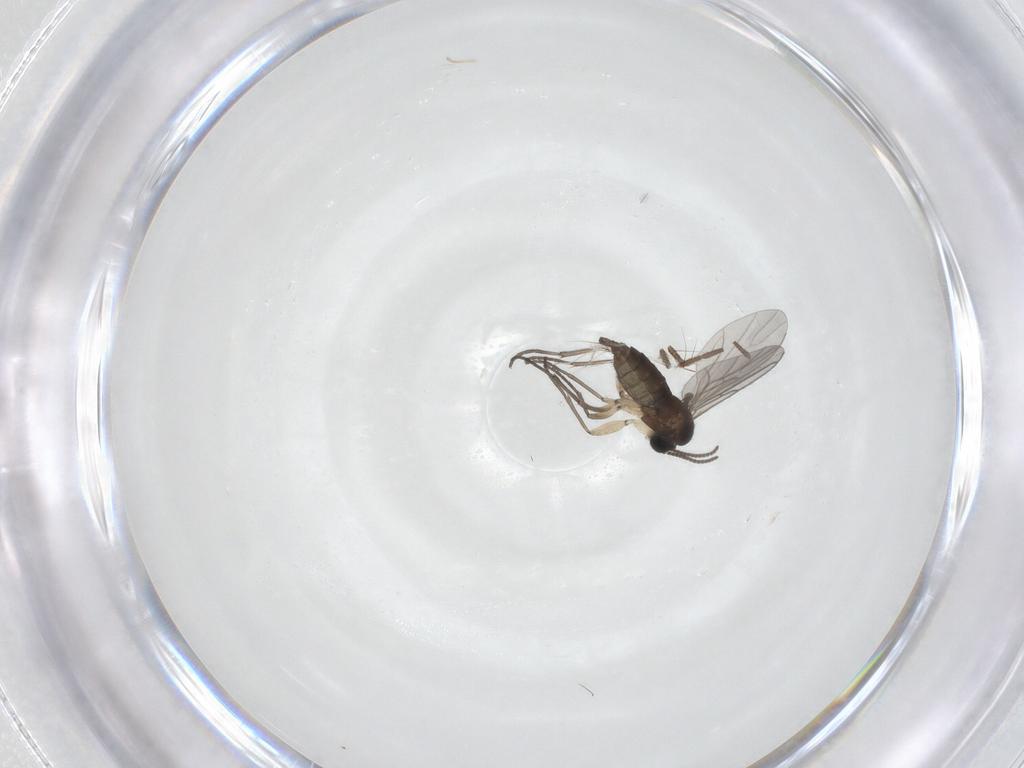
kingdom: Animalia
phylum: Arthropoda
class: Insecta
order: Diptera
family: Sciaridae
